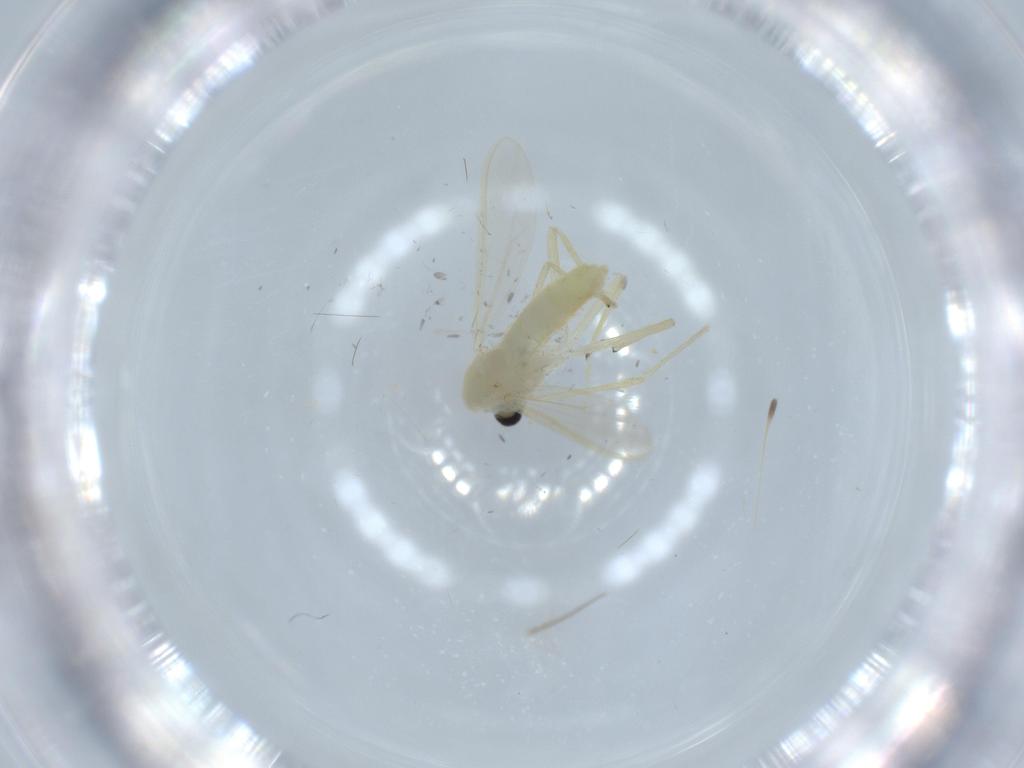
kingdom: Animalia
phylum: Arthropoda
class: Insecta
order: Diptera
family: Chironomidae
